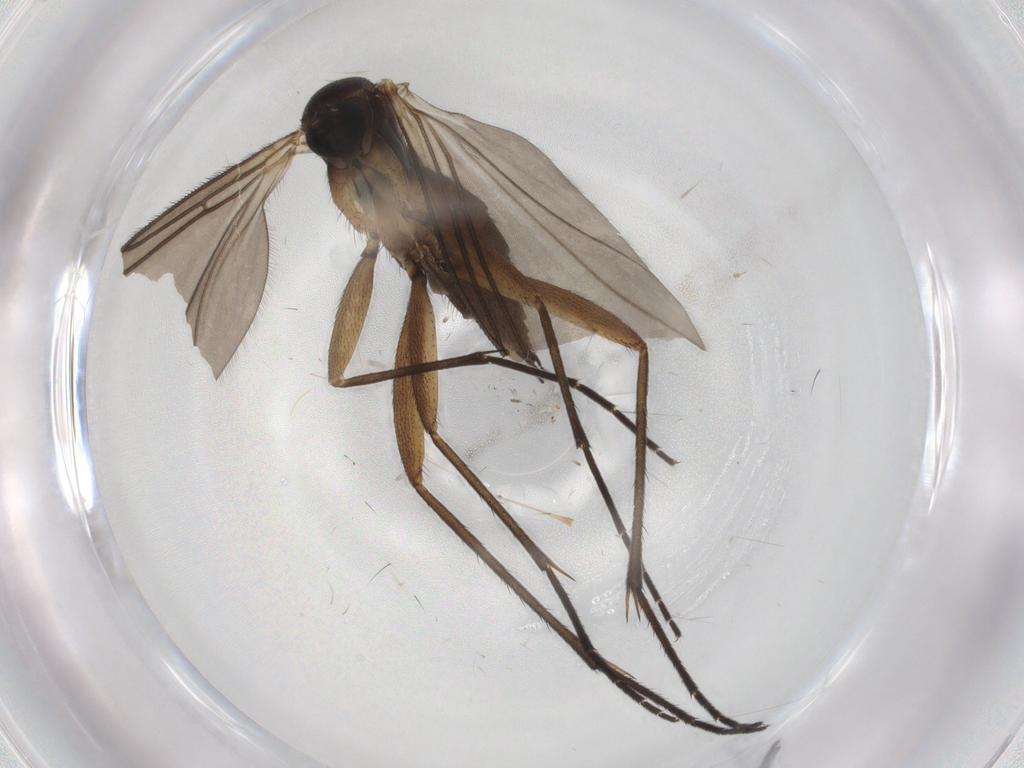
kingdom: Animalia
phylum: Arthropoda
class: Insecta
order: Diptera
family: Sciaridae
